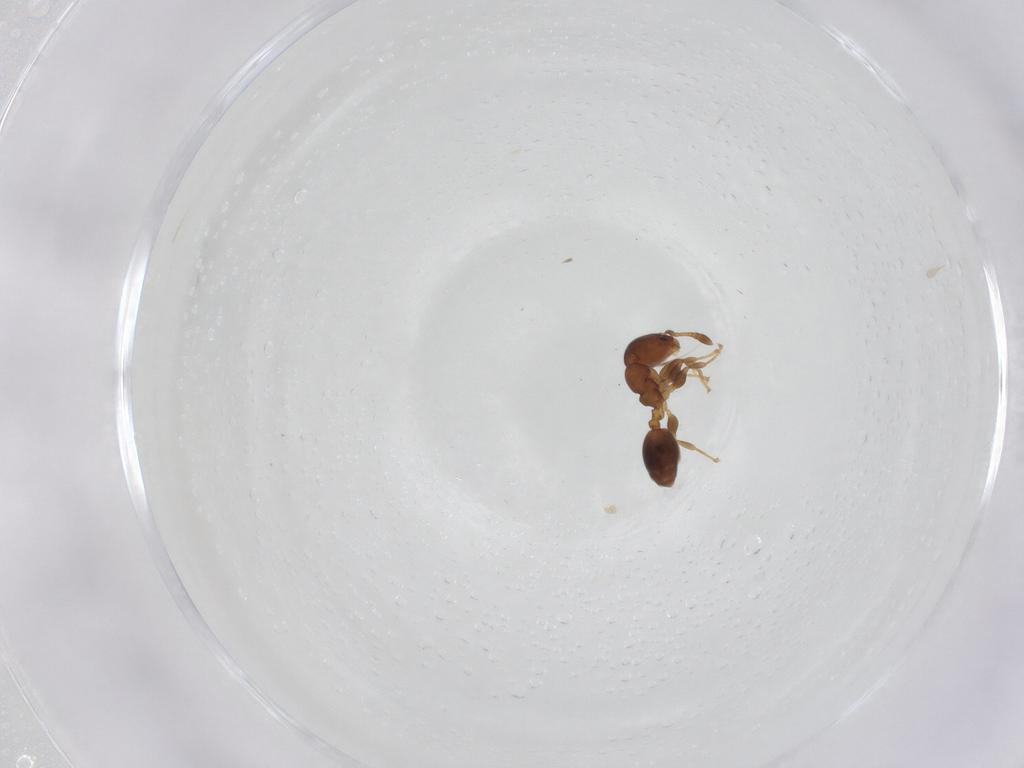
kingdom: Animalia
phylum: Arthropoda
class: Insecta
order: Hymenoptera
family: Formicidae
